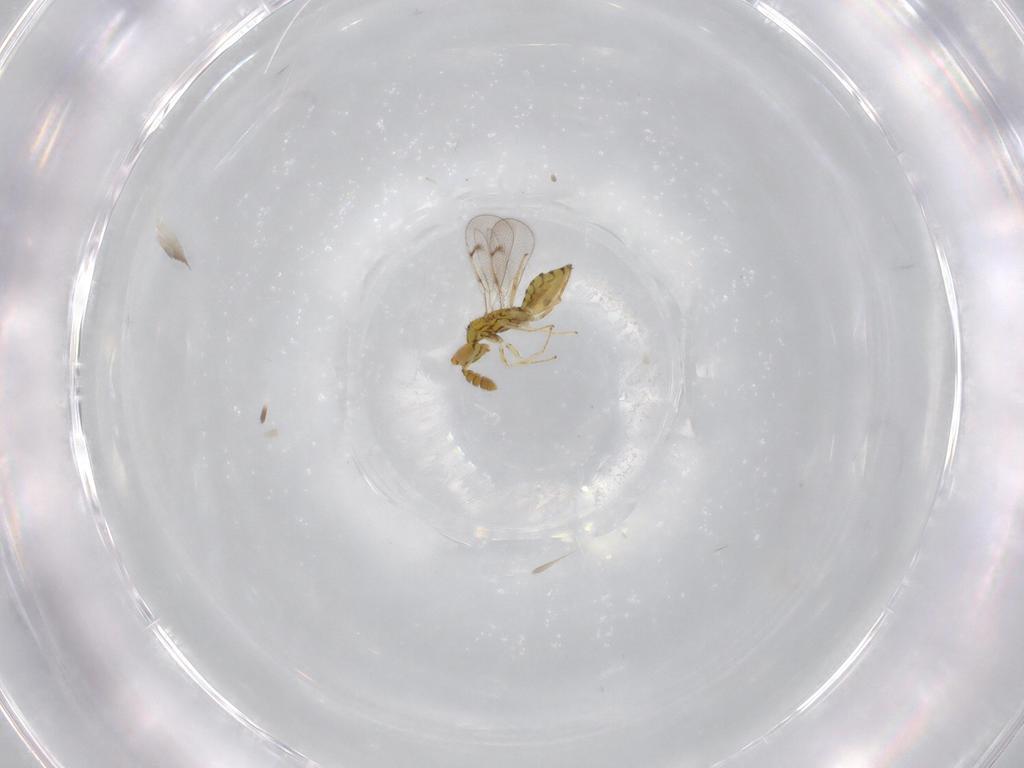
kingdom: Animalia
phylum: Arthropoda
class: Insecta
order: Hymenoptera
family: Eulophidae
